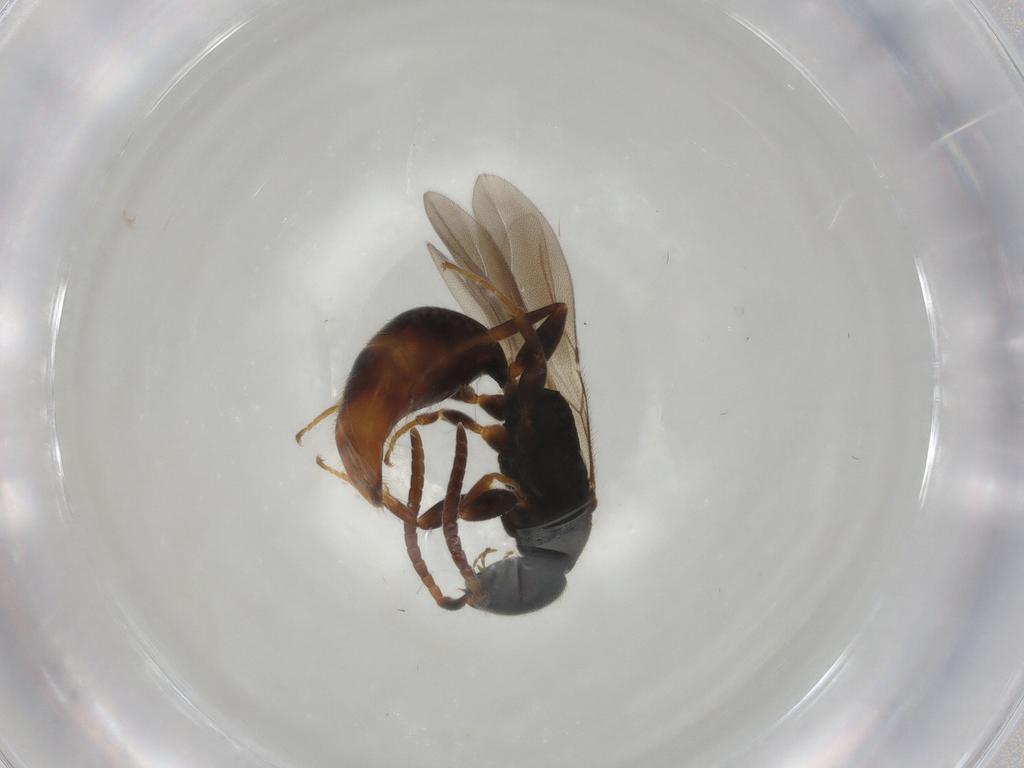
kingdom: Animalia
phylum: Arthropoda
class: Insecta
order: Hymenoptera
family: Bethylidae
